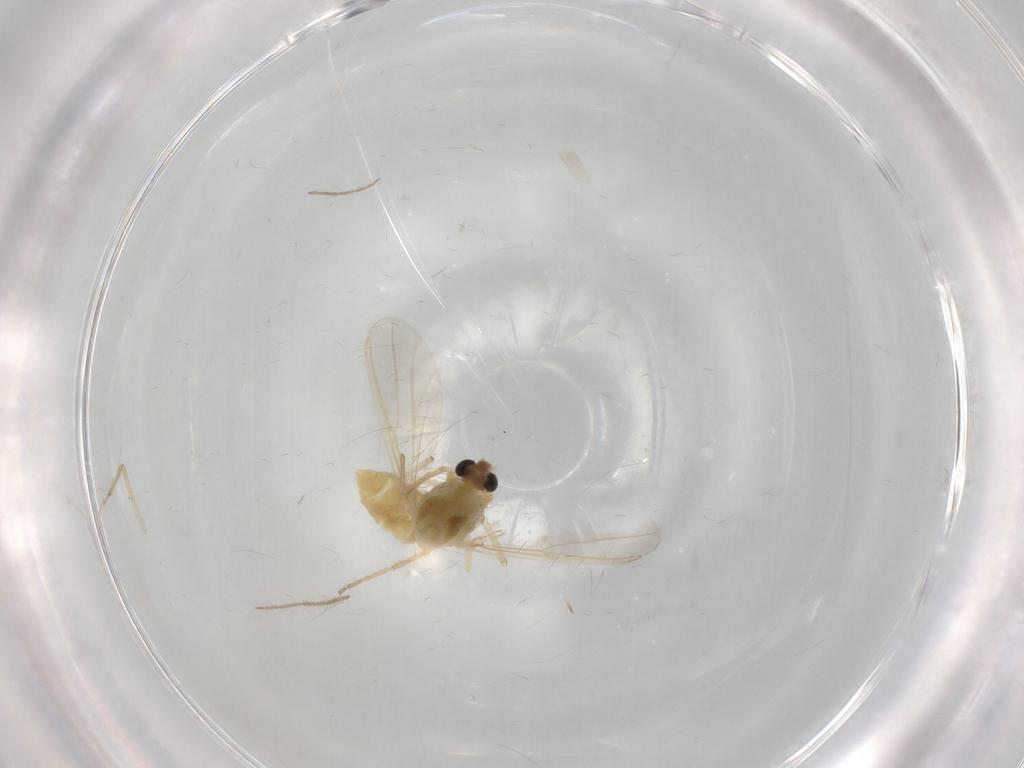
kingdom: Animalia
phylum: Arthropoda
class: Insecta
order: Diptera
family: Chironomidae
